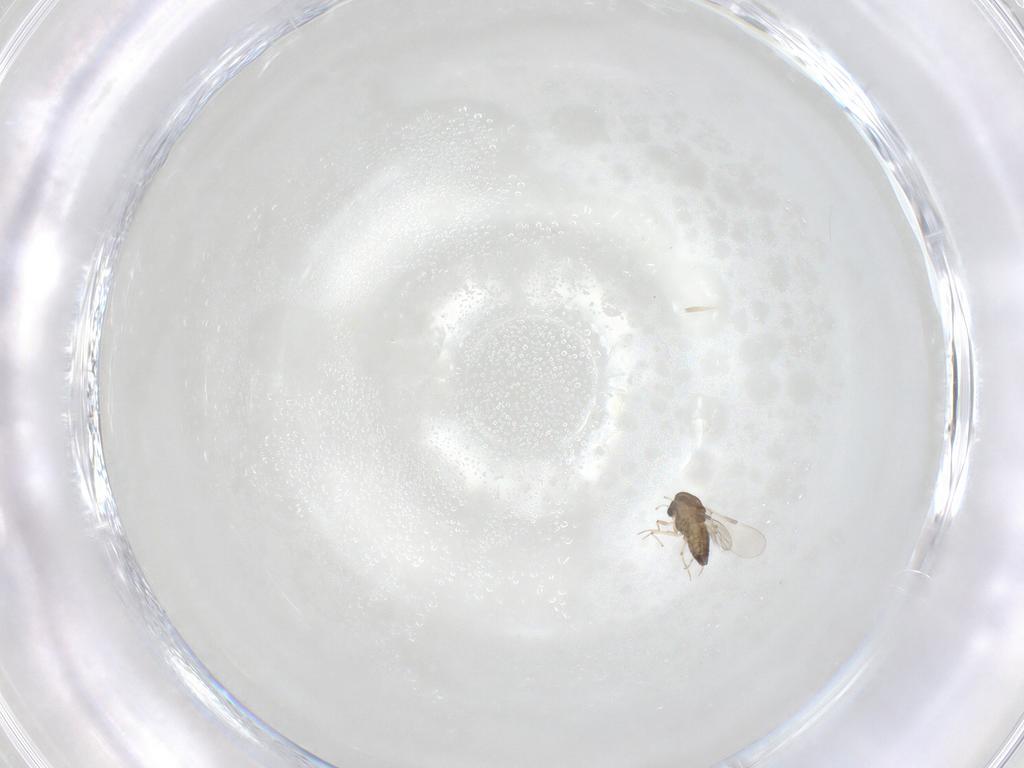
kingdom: Animalia
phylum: Arthropoda
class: Insecta
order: Diptera
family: Chironomidae
